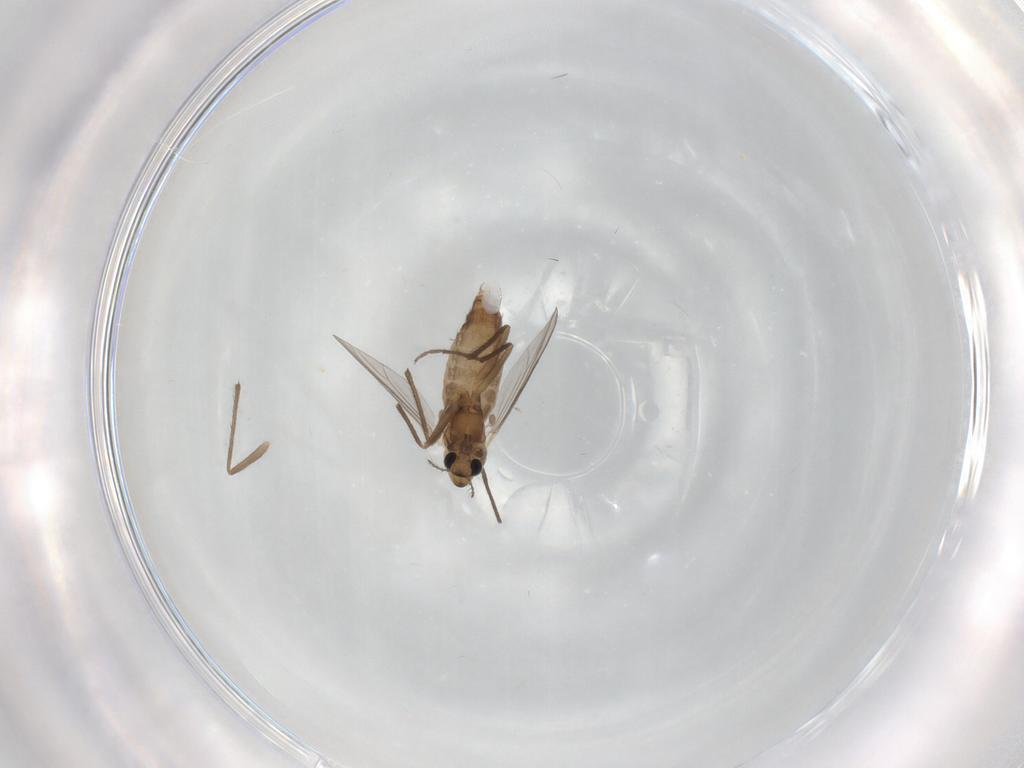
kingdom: Animalia
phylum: Arthropoda
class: Insecta
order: Diptera
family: Chironomidae
